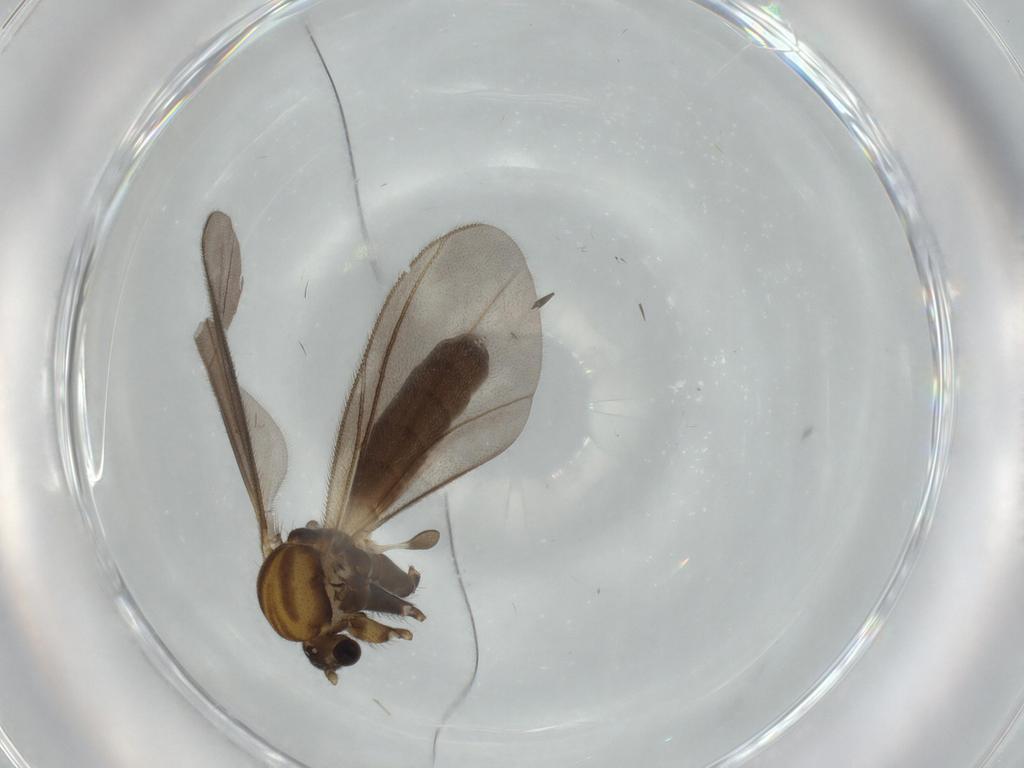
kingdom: Animalia
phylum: Arthropoda
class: Insecta
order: Diptera
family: Mycetophilidae
